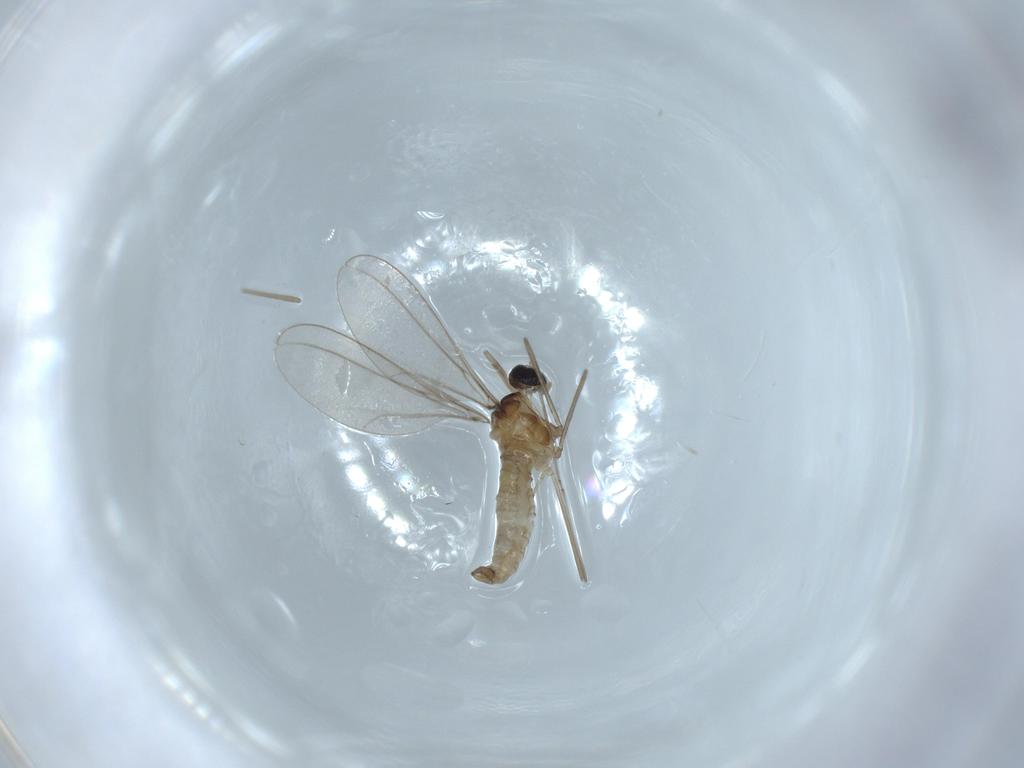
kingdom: Animalia
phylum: Arthropoda
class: Insecta
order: Diptera
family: Cecidomyiidae
